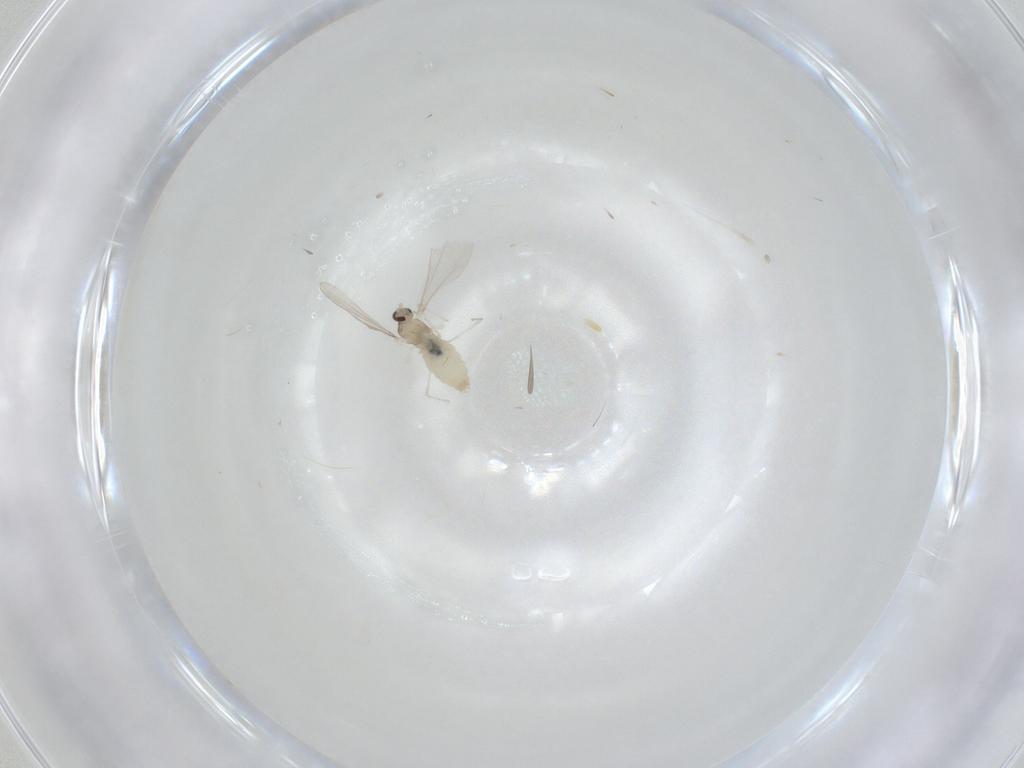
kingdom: Animalia
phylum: Arthropoda
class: Insecta
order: Diptera
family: Cecidomyiidae
